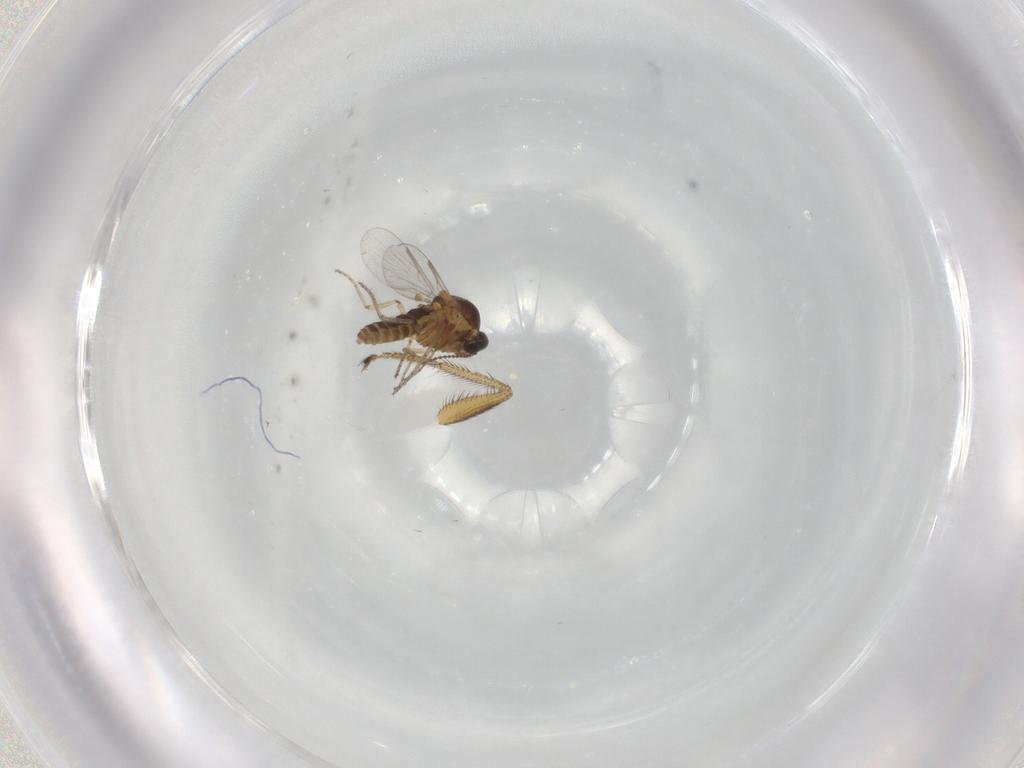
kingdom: Animalia
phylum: Arthropoda
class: Insecta
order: Diptera
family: Ceratopogonidae
